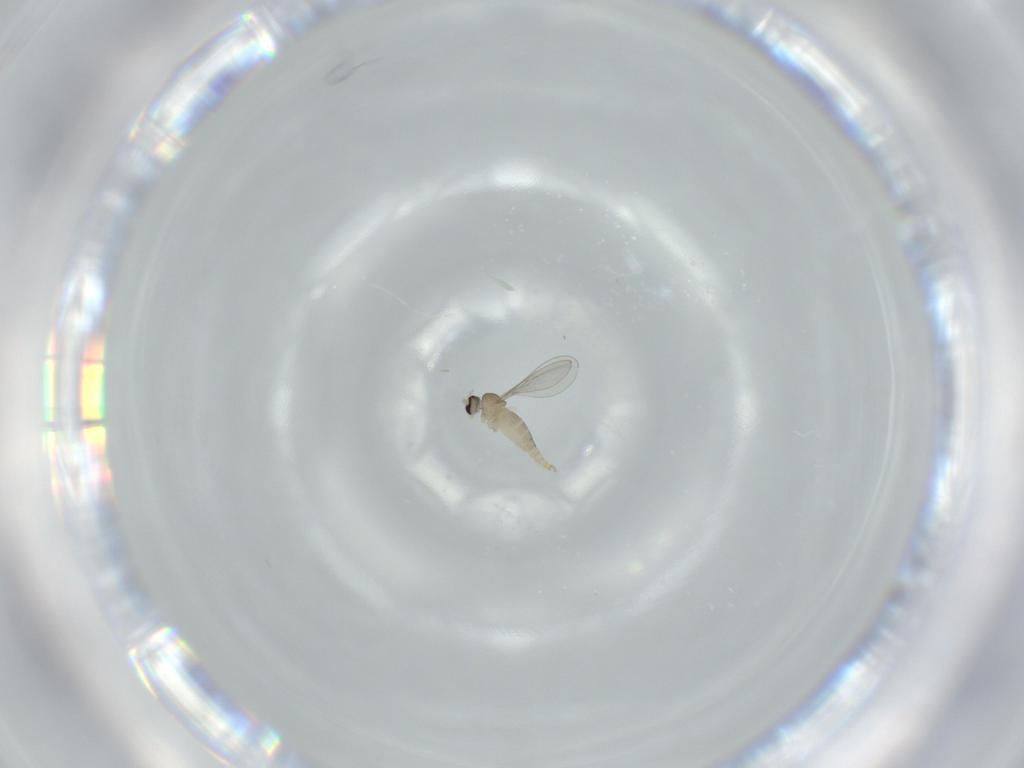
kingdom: Animalia
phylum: Arthropoda
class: Insecta
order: Diptera
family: Cecidomyiidae
